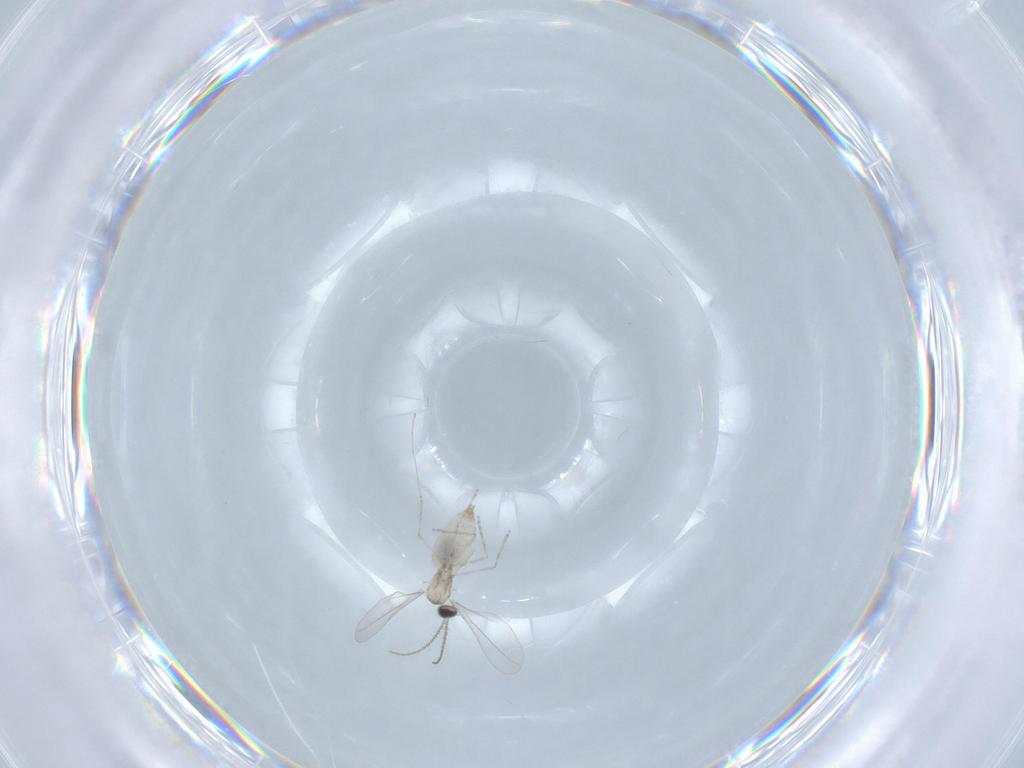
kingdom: Animalia
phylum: Arthropoda
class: Insecta
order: Diptera
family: Cecidomyiidae
